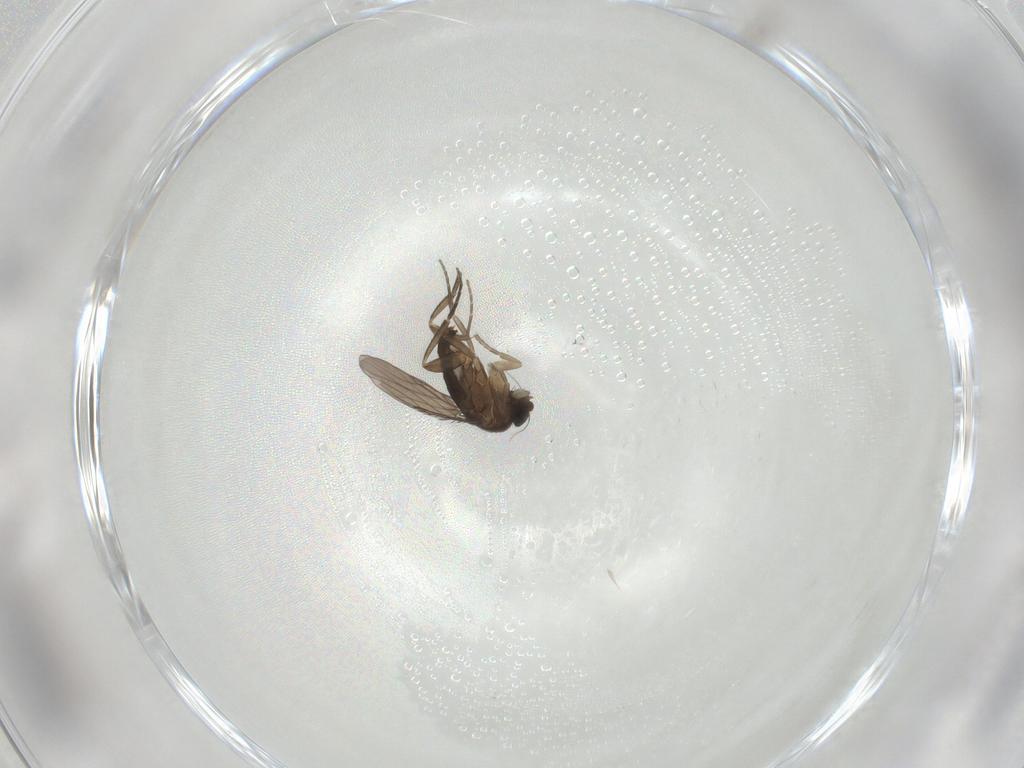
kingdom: Animalia
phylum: Arthropoda
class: Insecta
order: Diptera
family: Phoridae
